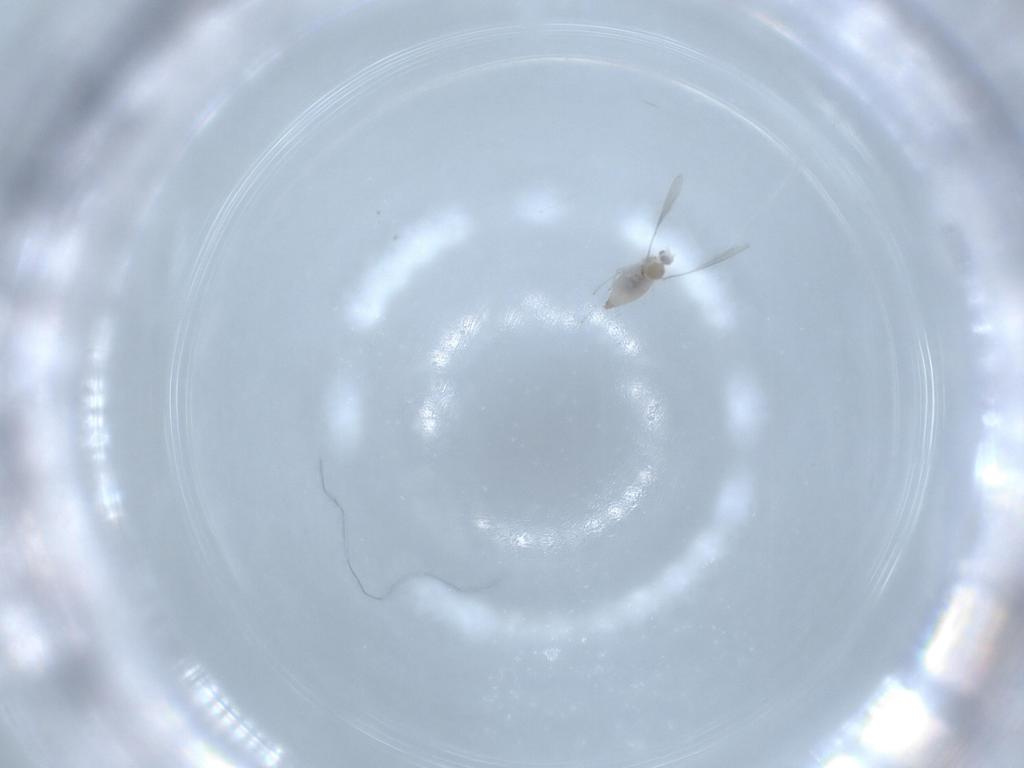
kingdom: Animalia
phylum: Arthropoda
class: Insecta
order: Diptera
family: Cecidomyiidae
